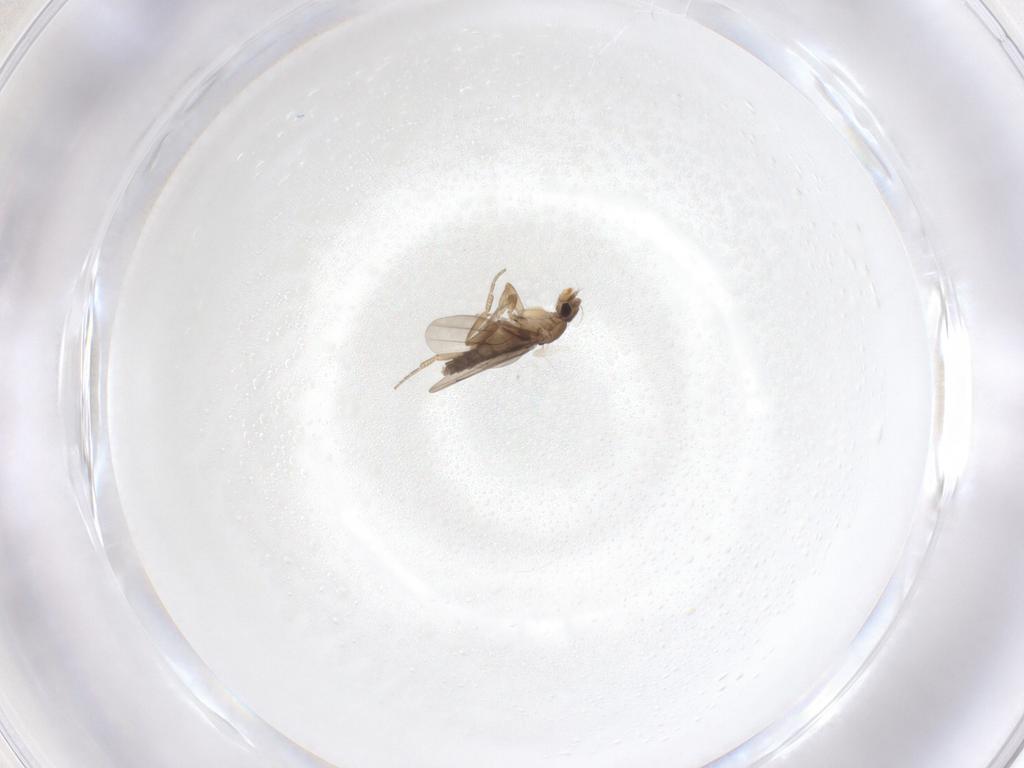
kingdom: Animalia
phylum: Arthropoda
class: Insecta
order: Diptera
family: Phoridae
